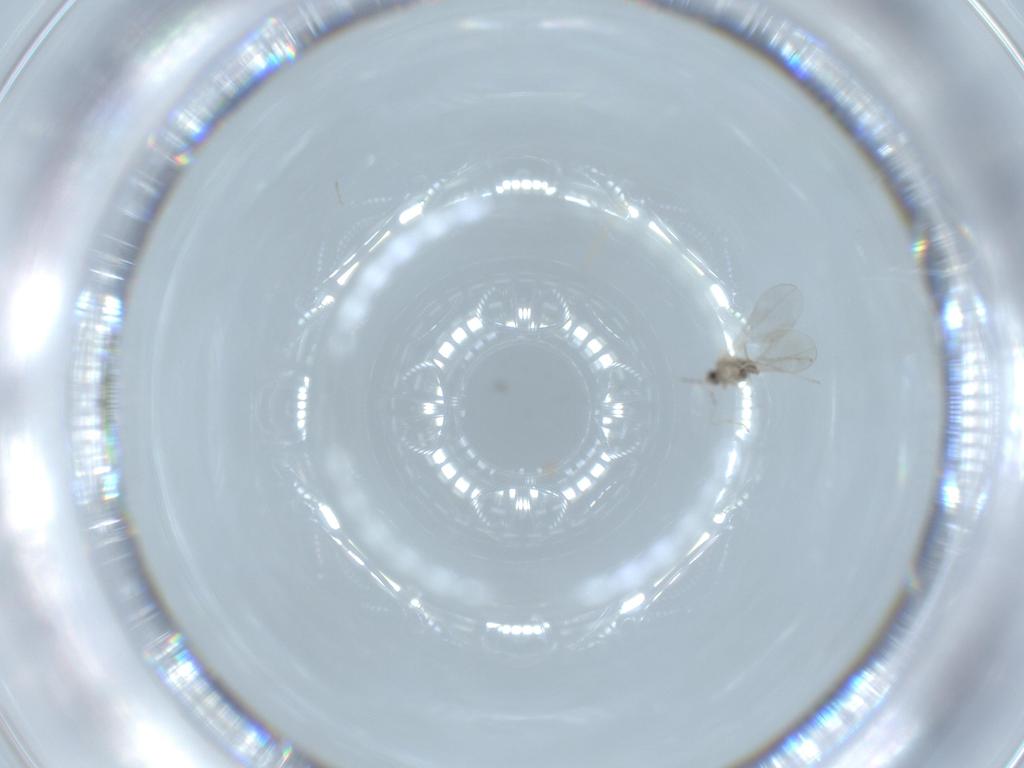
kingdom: Animalia
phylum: Arthropoda
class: Insecta
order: Diptera
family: Cecidomyiidae
